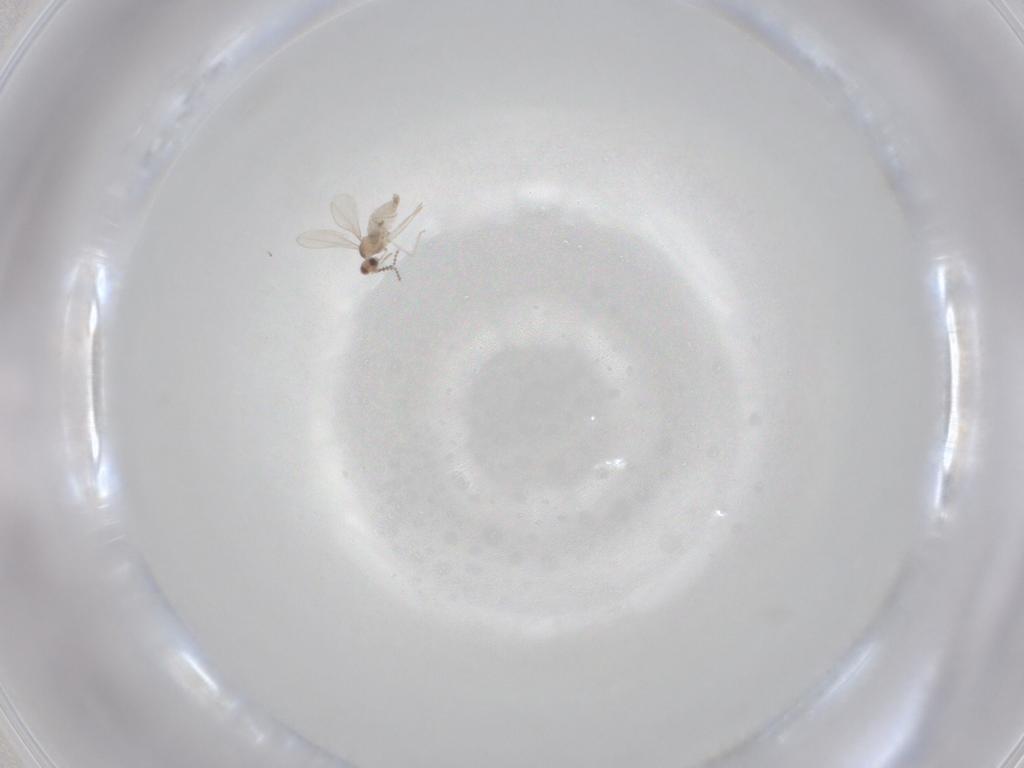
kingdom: Animalia
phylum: Arthropoda
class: Insecta
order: Diptera
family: Cecidomyiidae
